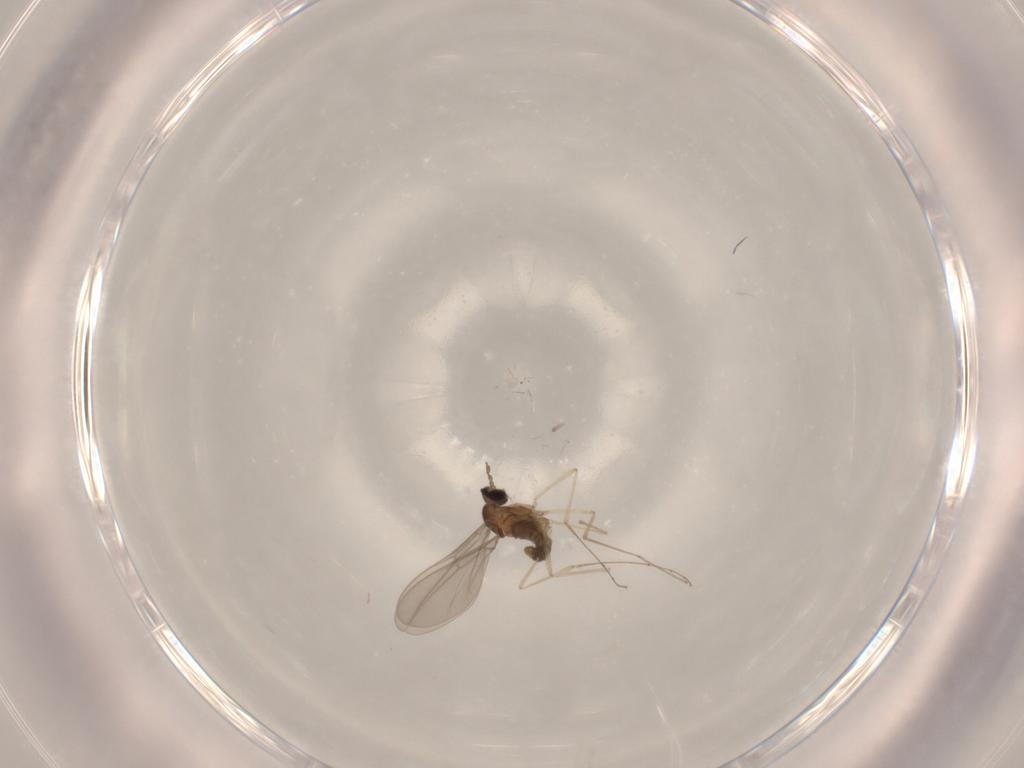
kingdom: Animalia
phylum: Arthropoda
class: Insecta
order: Diptera
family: Cecidomyiidae
